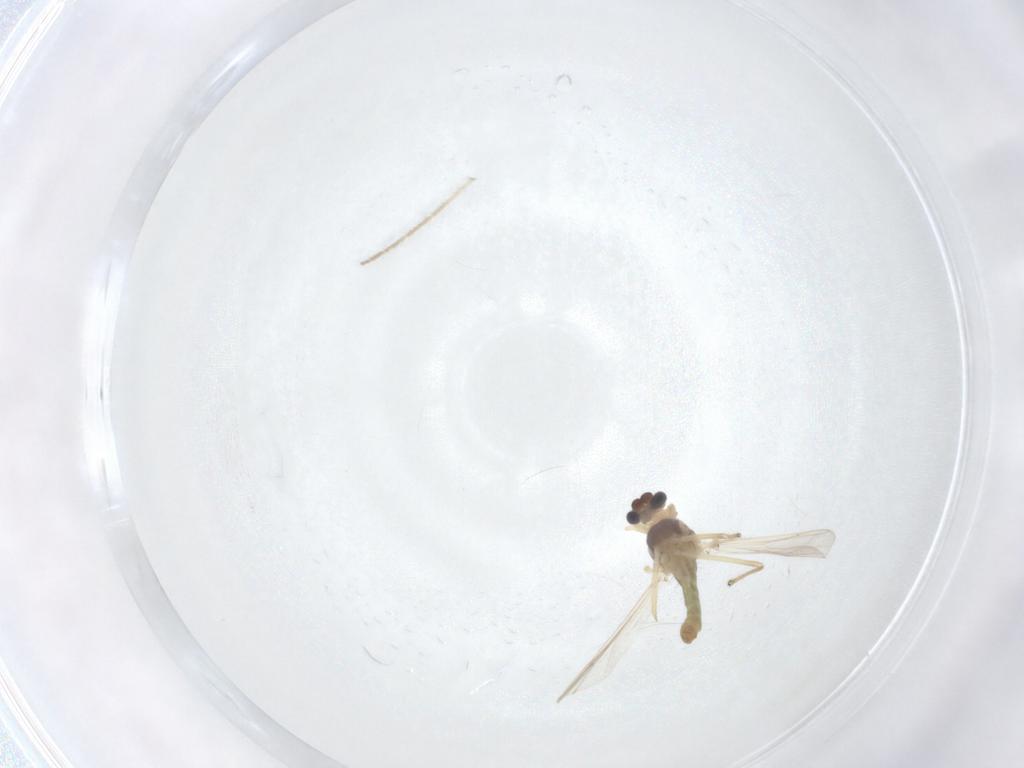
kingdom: Animalia
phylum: Arthropoda
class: Insecta
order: Diptera
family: Chironomidae
